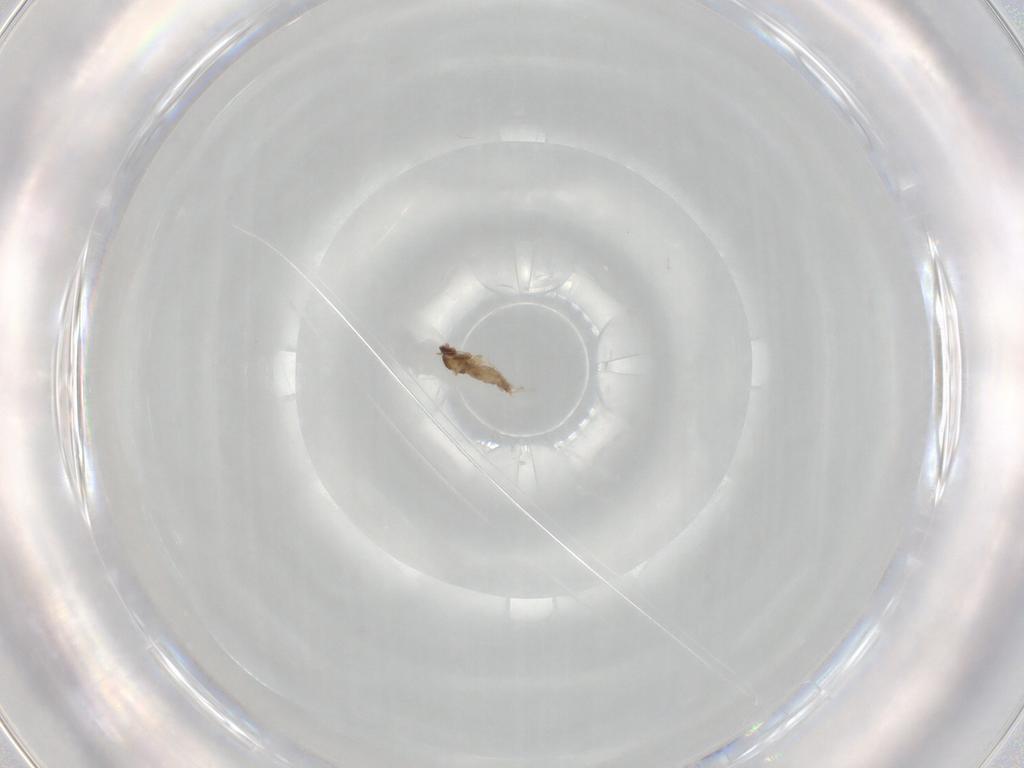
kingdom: Animalia
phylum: Arthropoda
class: Insecta
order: Diptera
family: Cecidomyiidae
